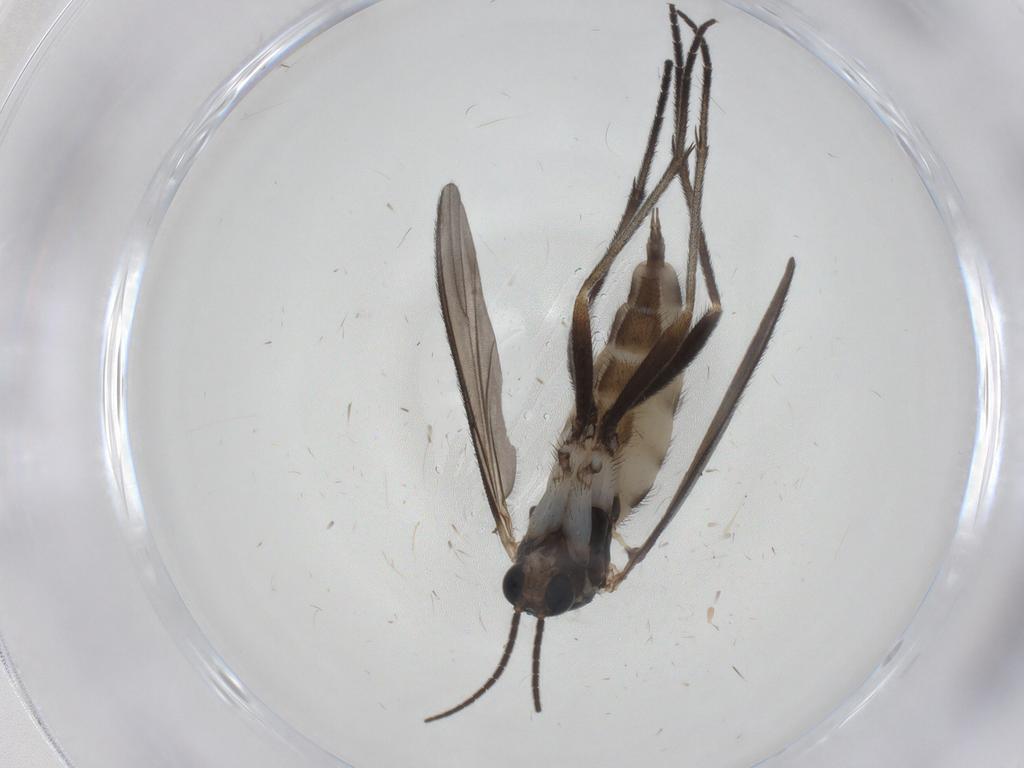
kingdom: Animalia
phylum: Arthropoda
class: Insecta
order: Diptera
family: Sciaridae
